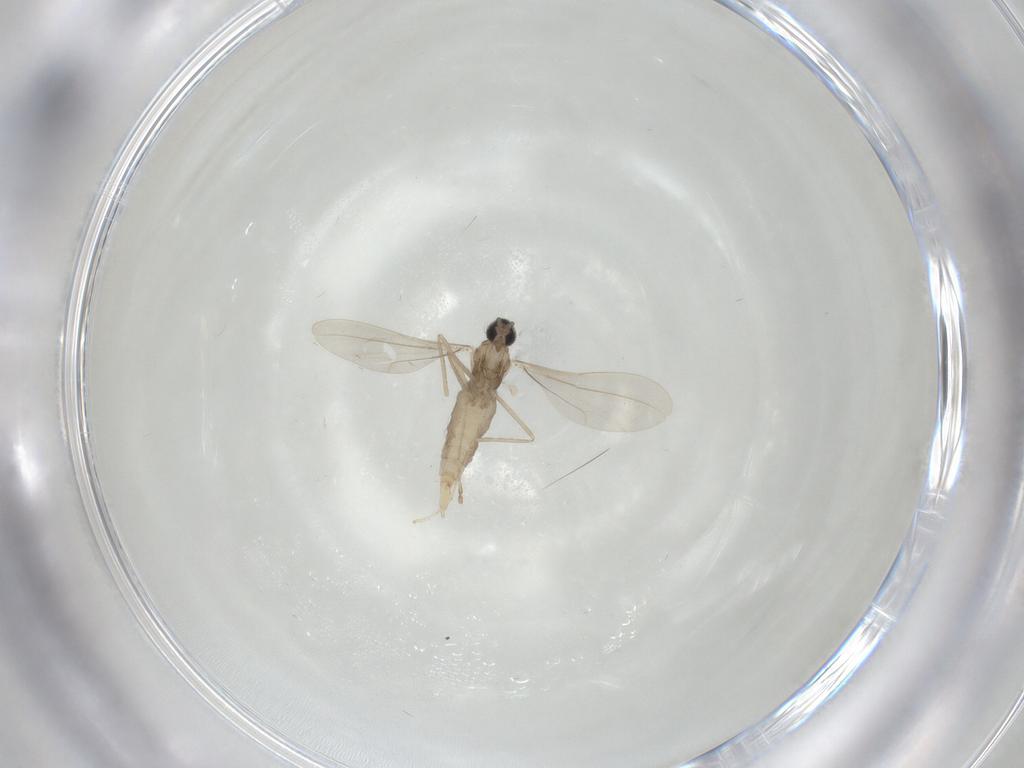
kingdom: Animalia
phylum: Arthropoda
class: Insecta
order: Diptera
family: Cecidomyiidae
